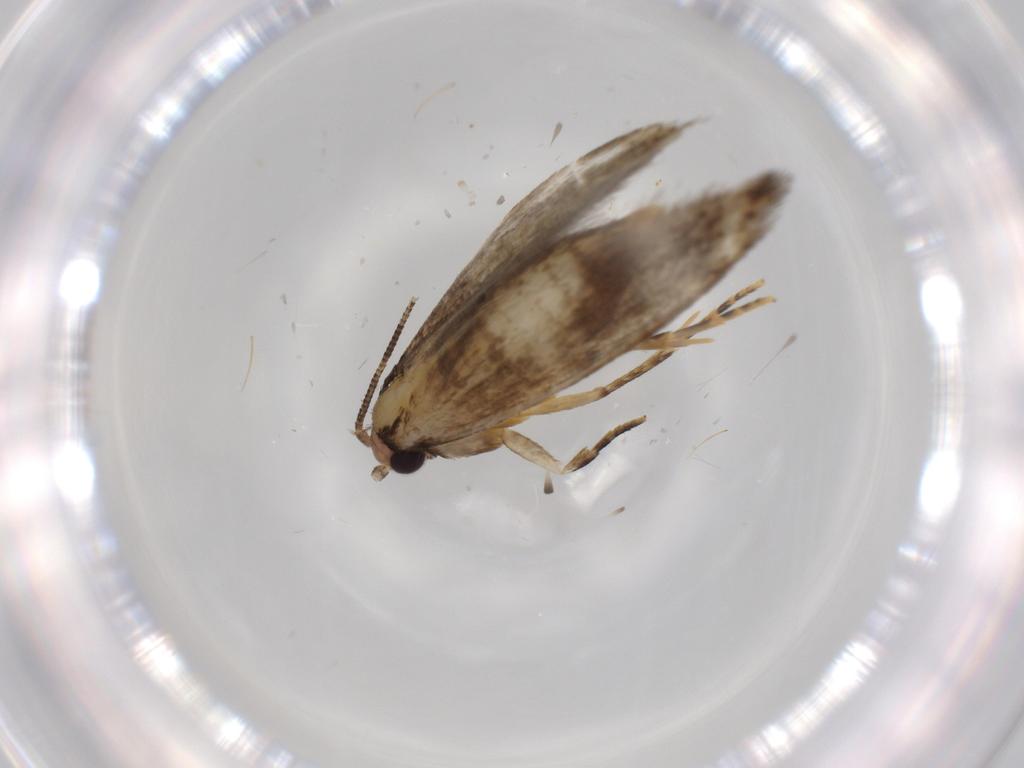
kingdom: Animalia
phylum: Arthropoda
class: Insecta
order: Lepidoptera
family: Tineidae
